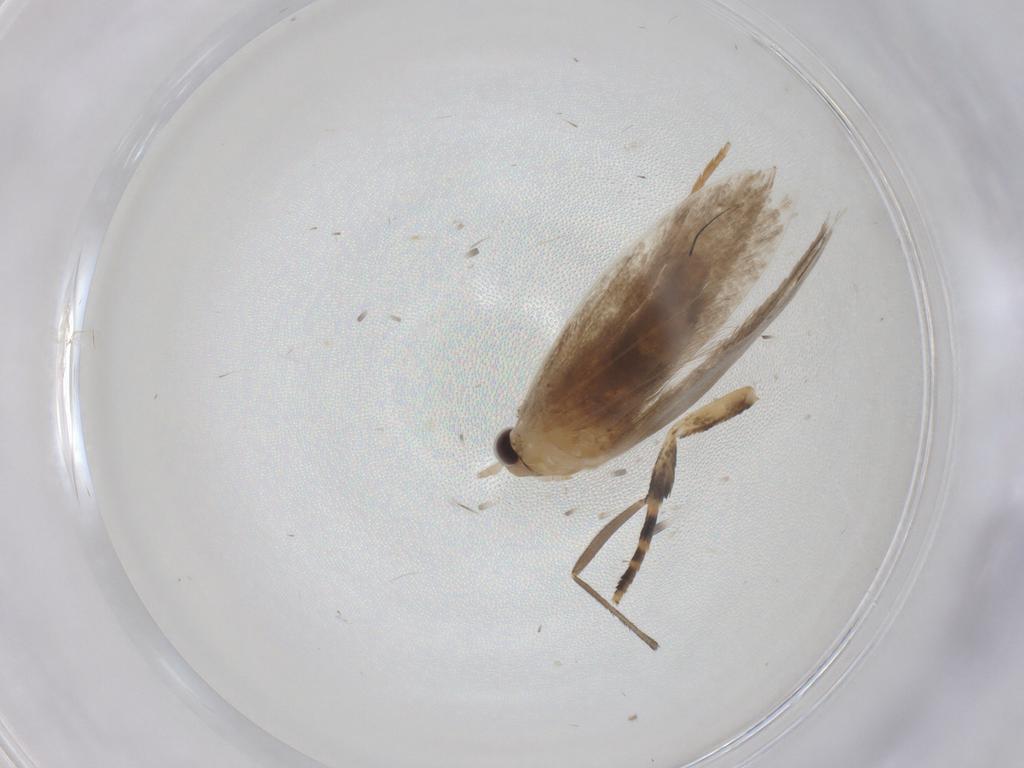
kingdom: Animalia
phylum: Arthropoda
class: Insecta
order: Lepidoptera
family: Tineidae
